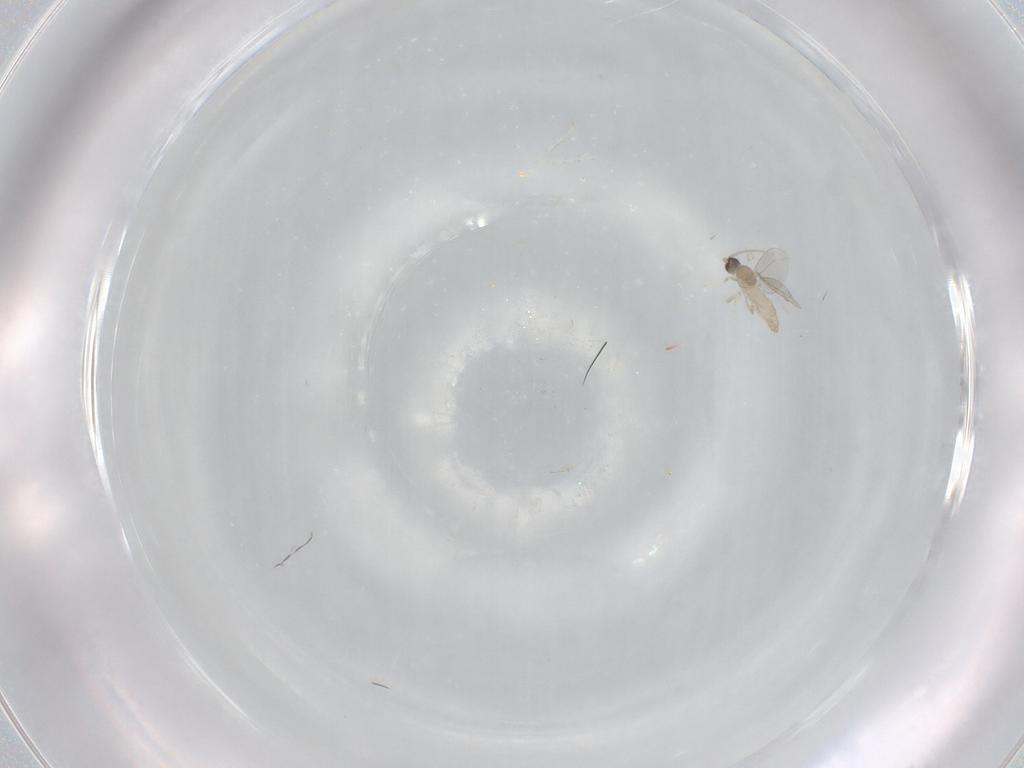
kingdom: Animalia
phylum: Arthropoda
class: Insecta
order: Diptera
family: Cecidomyiidae
